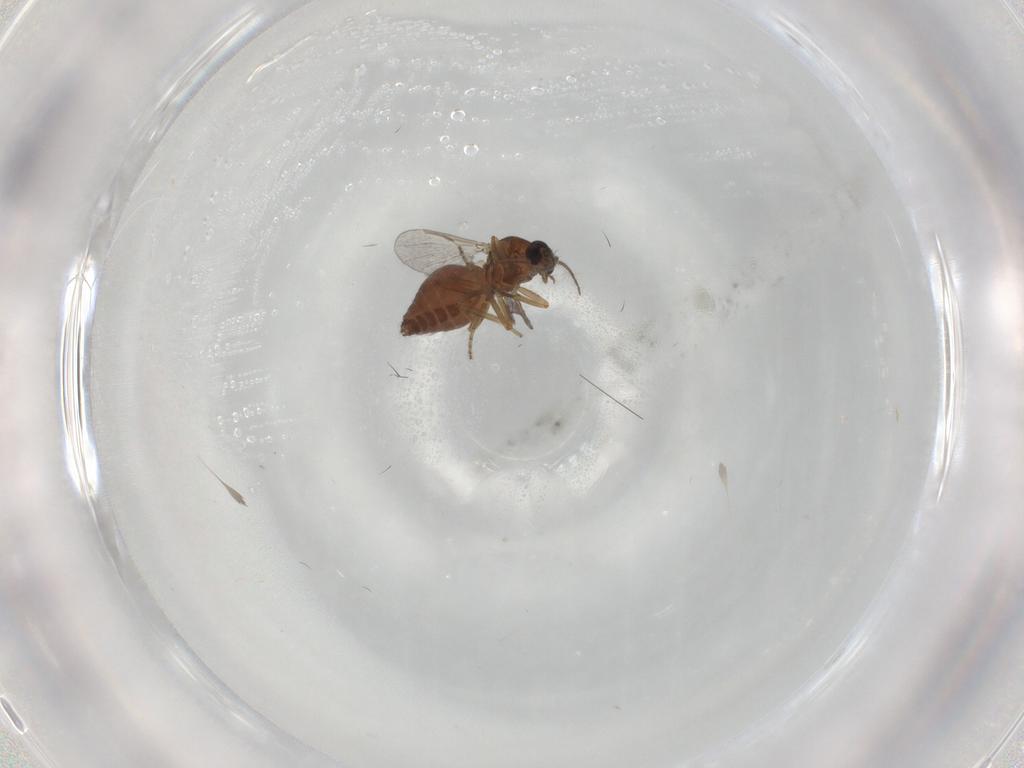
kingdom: Animalia
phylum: Arthropoda
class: Insecta
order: Diptera
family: Ceratopogonidae
